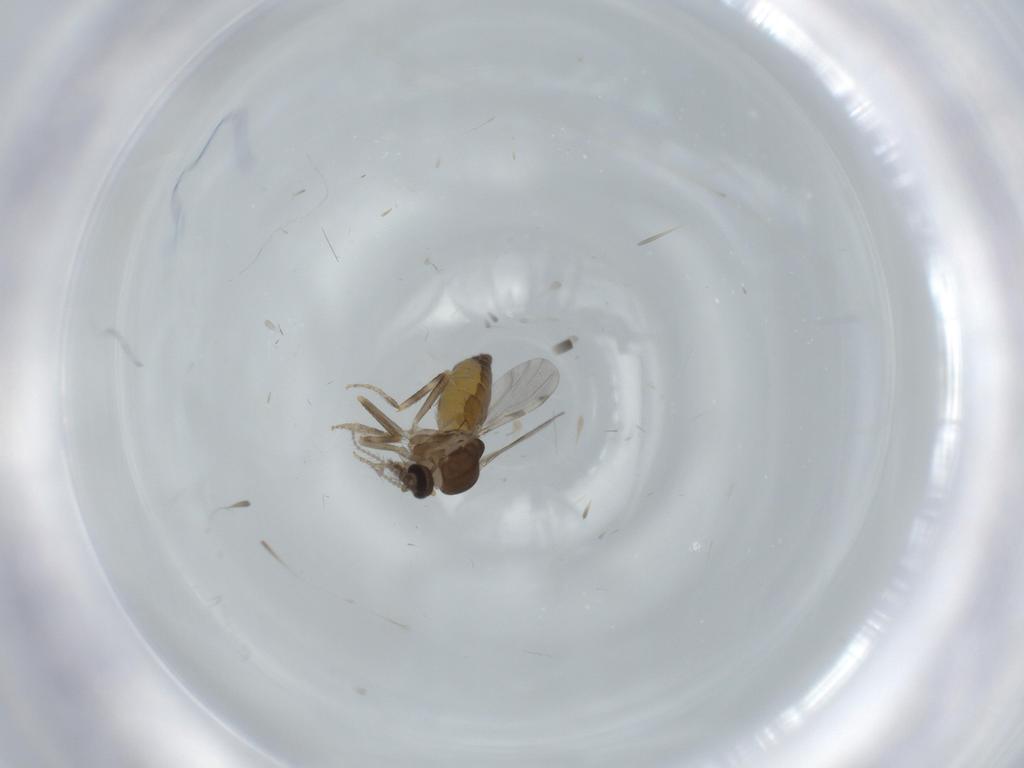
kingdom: Animalia
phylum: Arthropoda
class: Insecta
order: Diptera
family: Ceratopogonidae
